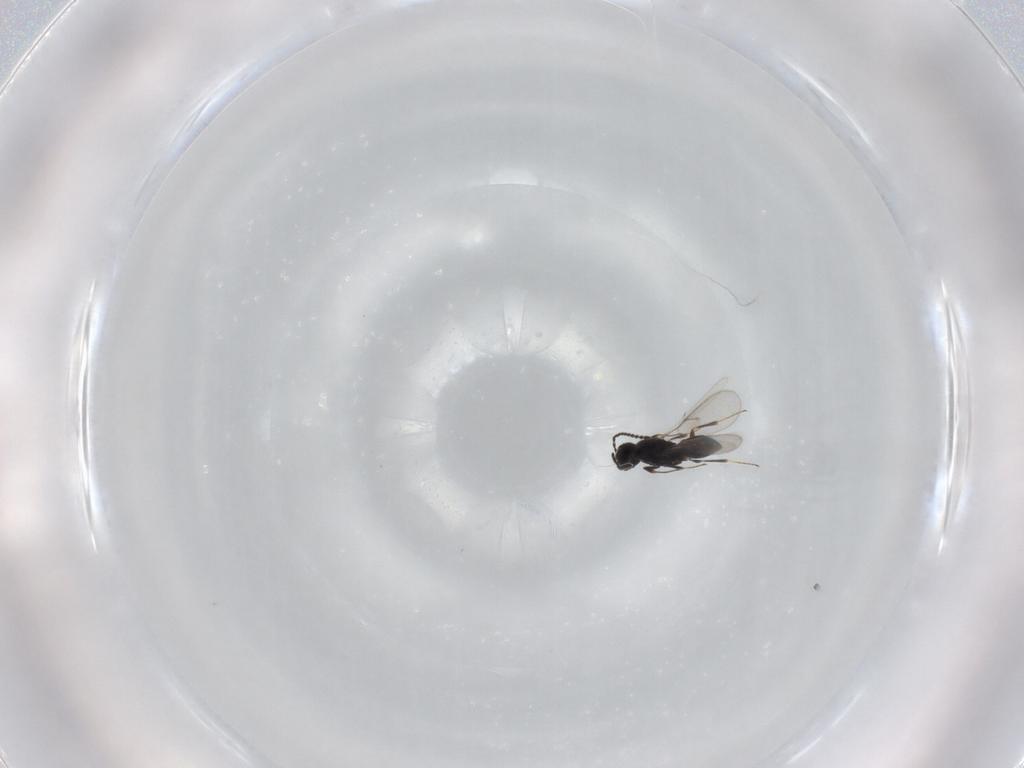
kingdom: Animalia
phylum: Arthropoda
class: Insecta
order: Hymenoptera
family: Scelionidae
